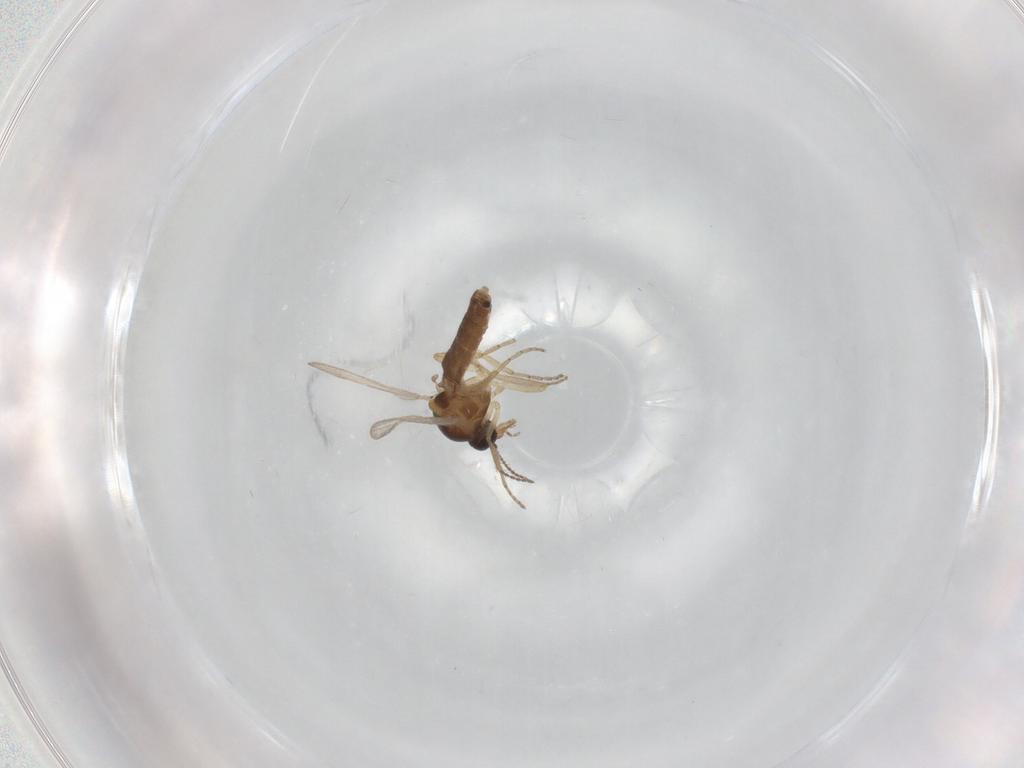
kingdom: Animalia
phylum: Arthropoda
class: Insecta
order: Diptera
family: Ceratopogonidae
